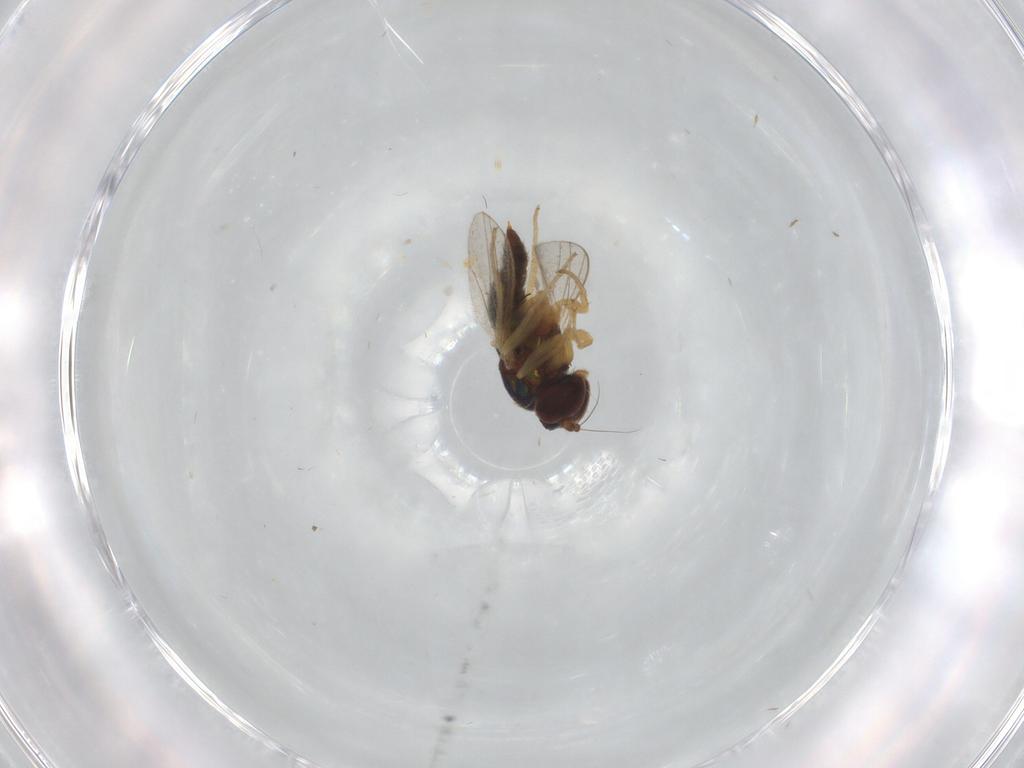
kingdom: Animalia
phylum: Arthropoda
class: Insecta
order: Diptera
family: Dolichopodidae
